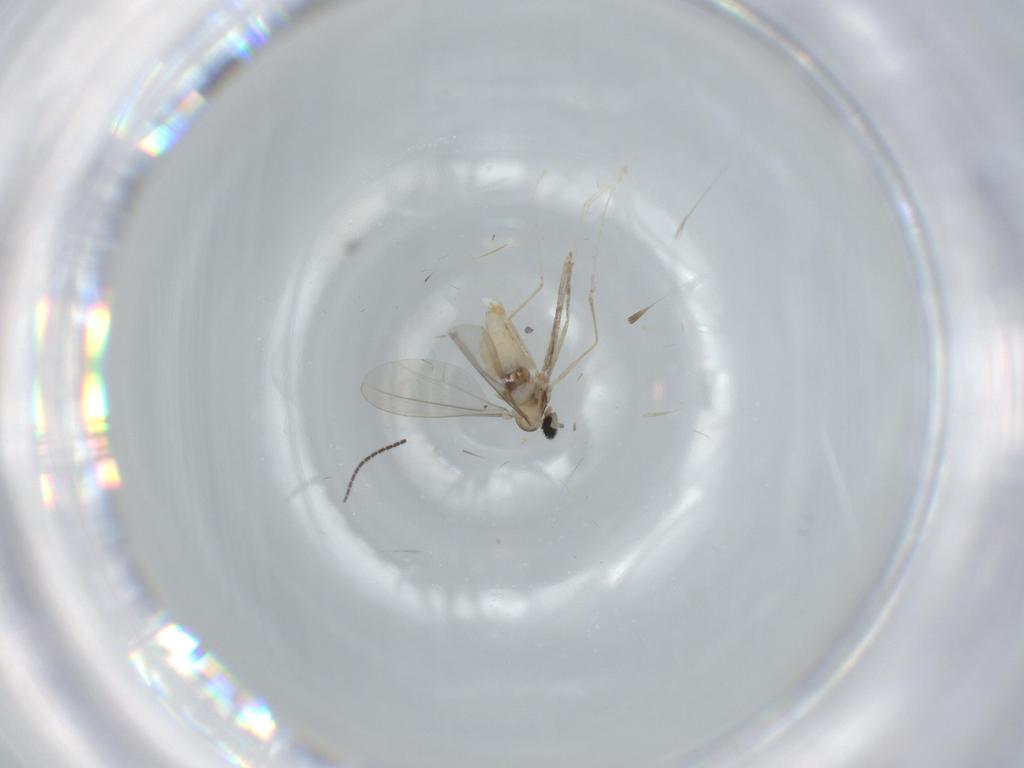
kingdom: Animalia
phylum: Arthropoda
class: Insecta
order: Diptera
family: Cecidomyiidae
